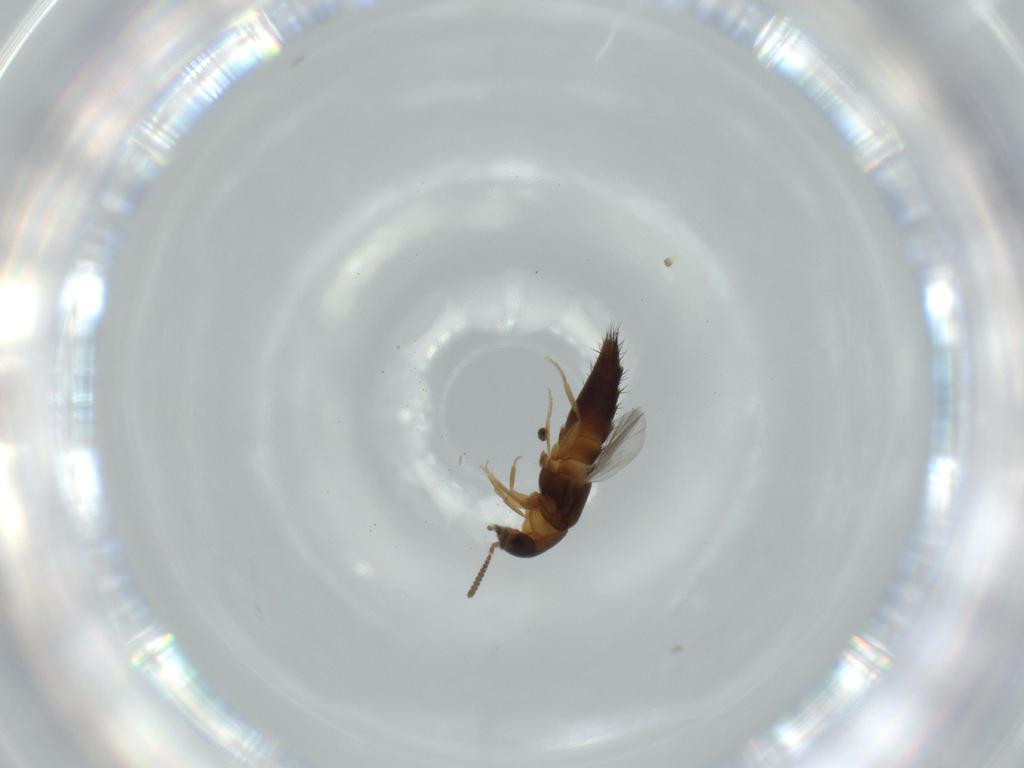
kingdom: Animalia
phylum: Arthropoda
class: Insecta
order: Coleoptera
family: Staphylinidae
